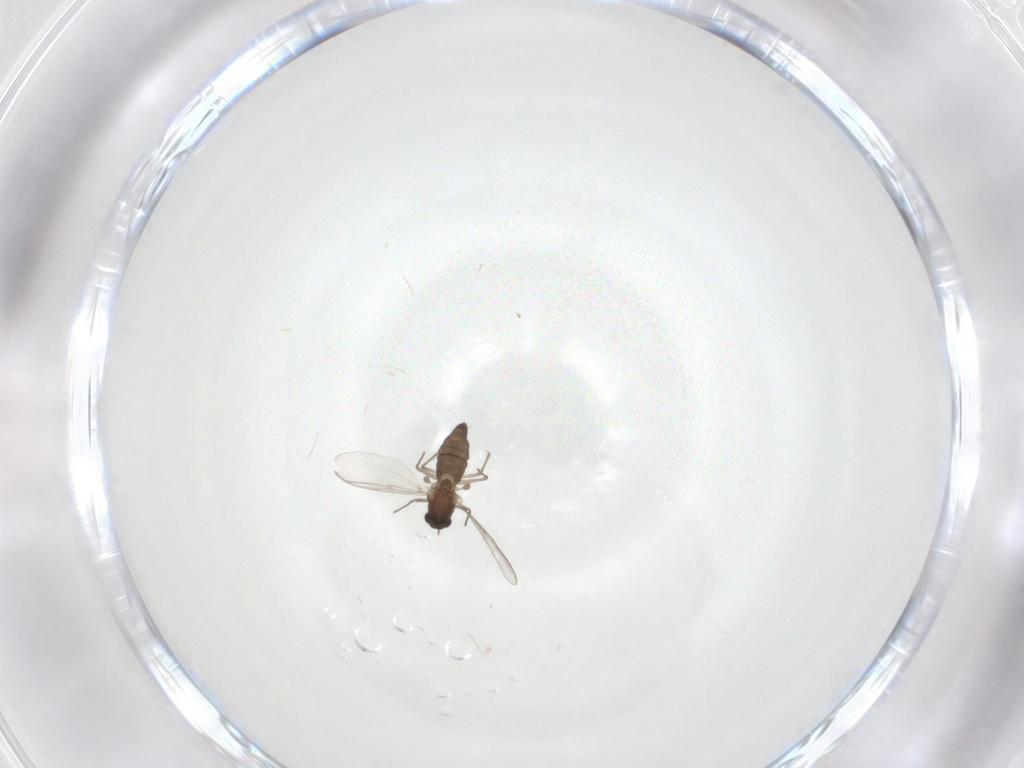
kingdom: Animalia
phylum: Arthropoda
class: Insecta
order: Diptera
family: Chironomidae
